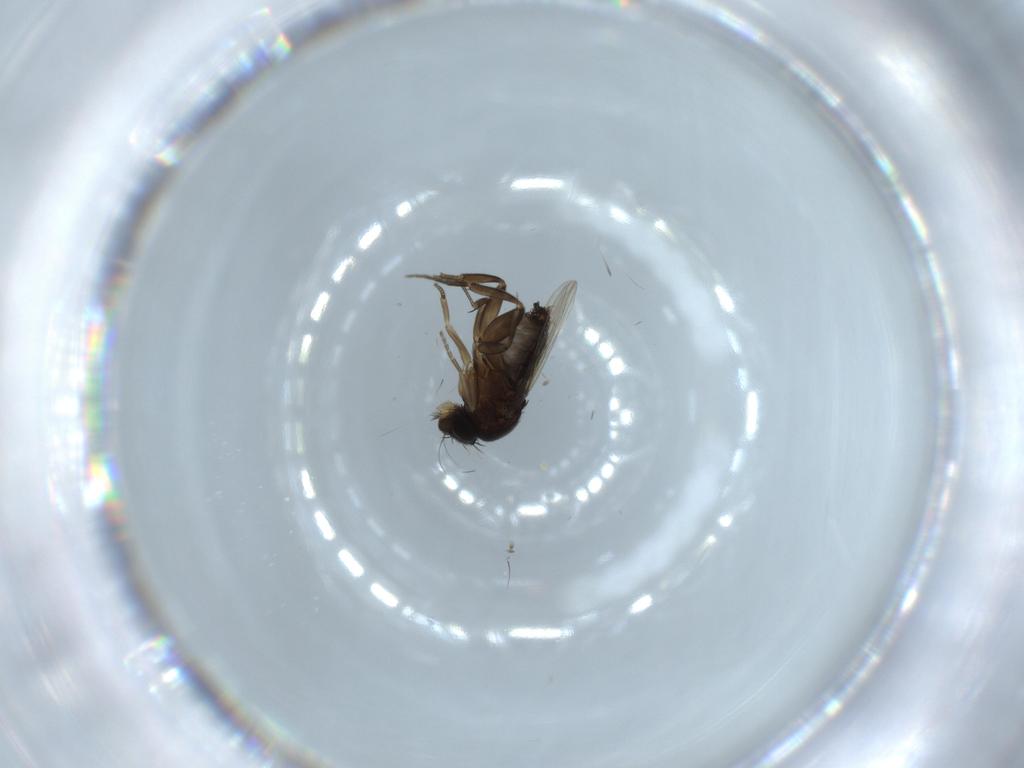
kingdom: Animalia
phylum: Arthropoda
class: Insecta
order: Diptera
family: Phoridae
